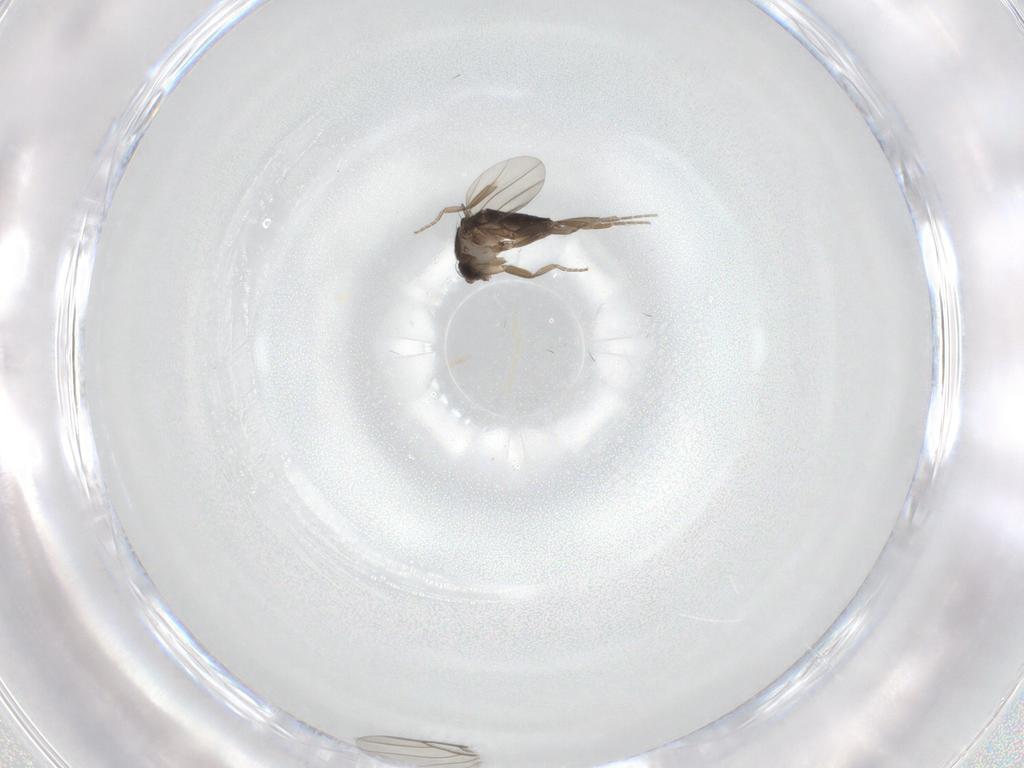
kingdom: Animalia
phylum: Arthropoda
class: Insecta
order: Diptera
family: Phoridae
